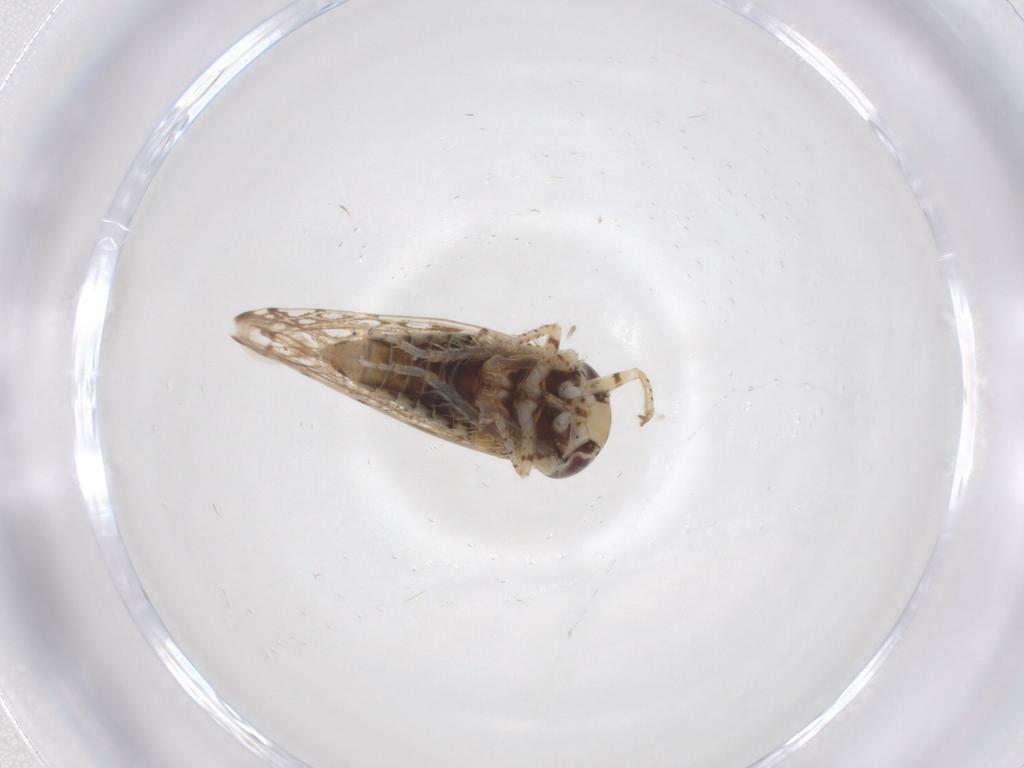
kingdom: Animalia
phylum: Arthropoda
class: Insecta
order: Hemiptera
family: Cicadellidae
